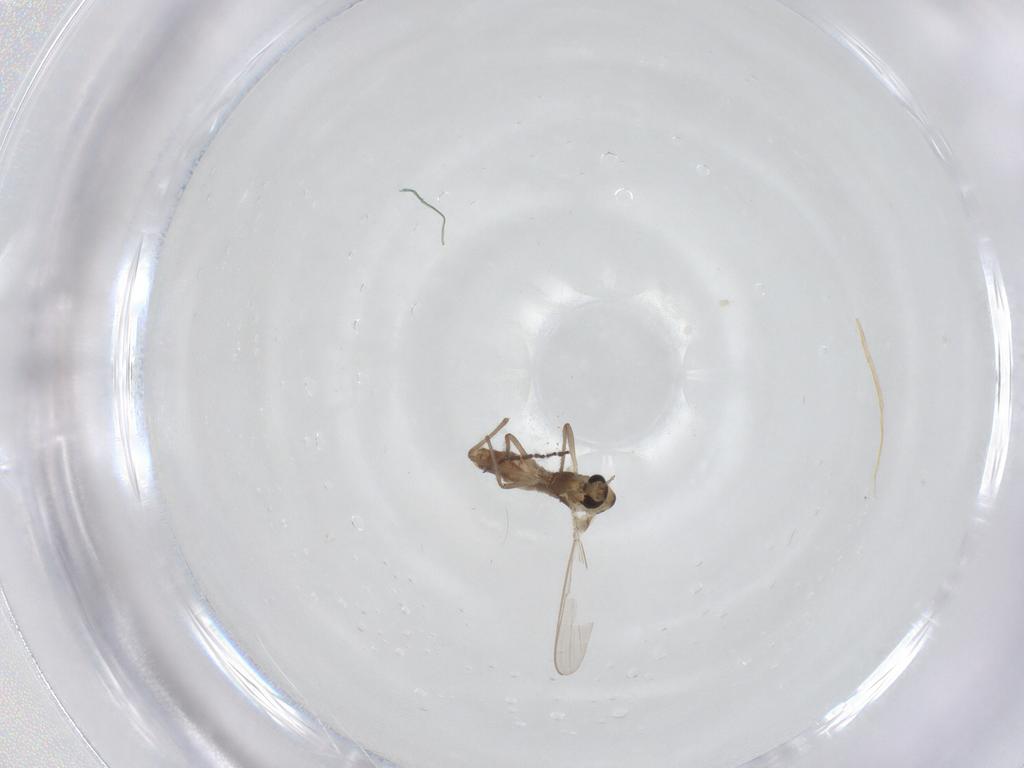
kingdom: Animalia
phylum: Arthropoda
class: Insecta
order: Diptera
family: Chironomidae
